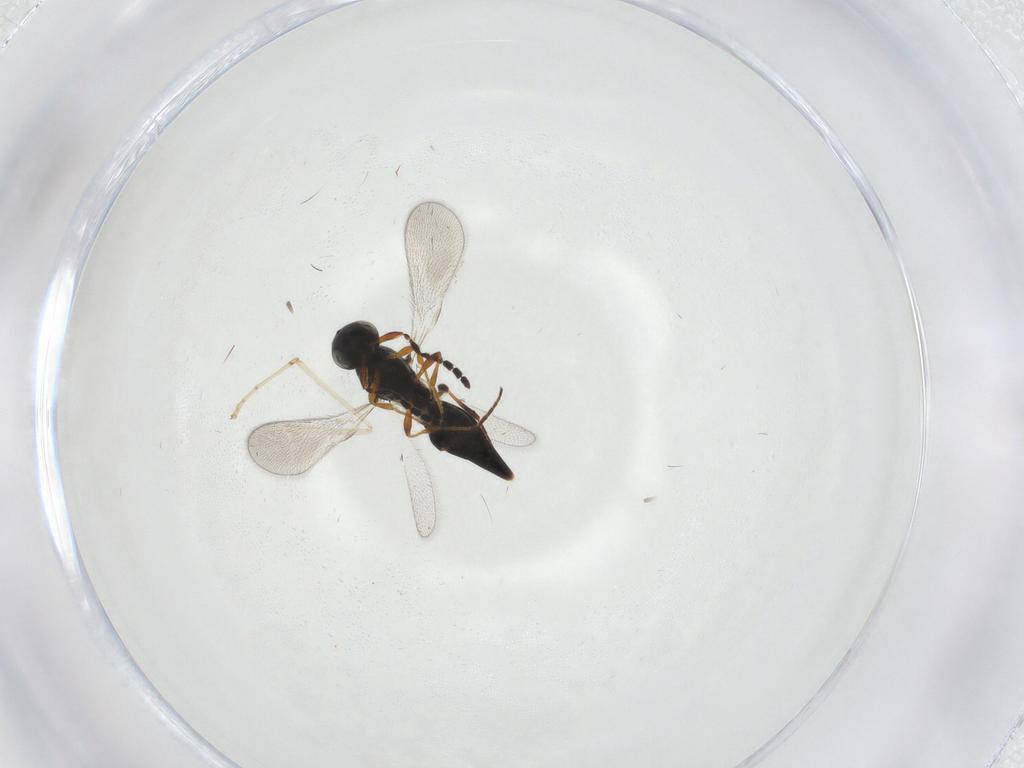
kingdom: Animalia
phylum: Arthropoda
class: Insecta
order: Hymenoptera
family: Platygastridae
